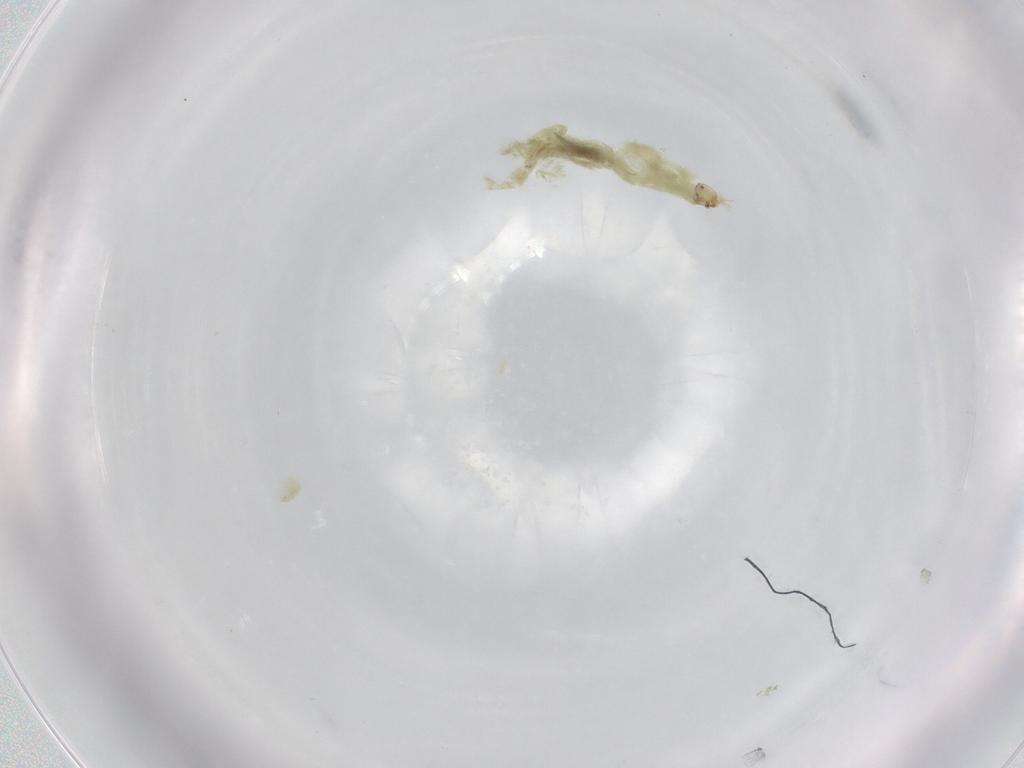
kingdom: Animalia
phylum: Arthropoda
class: Insecta
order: Diptera
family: Chironomidae
